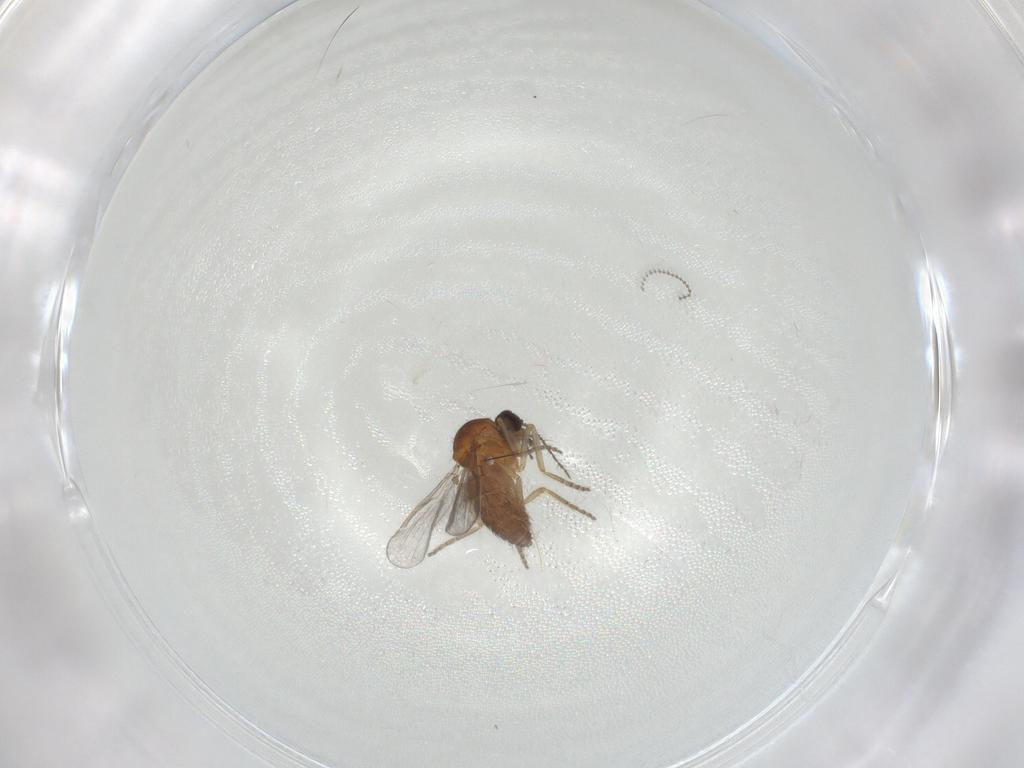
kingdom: Animalia
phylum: Arthropoda
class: Insecta
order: Diptera
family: Ceratopogonidae
